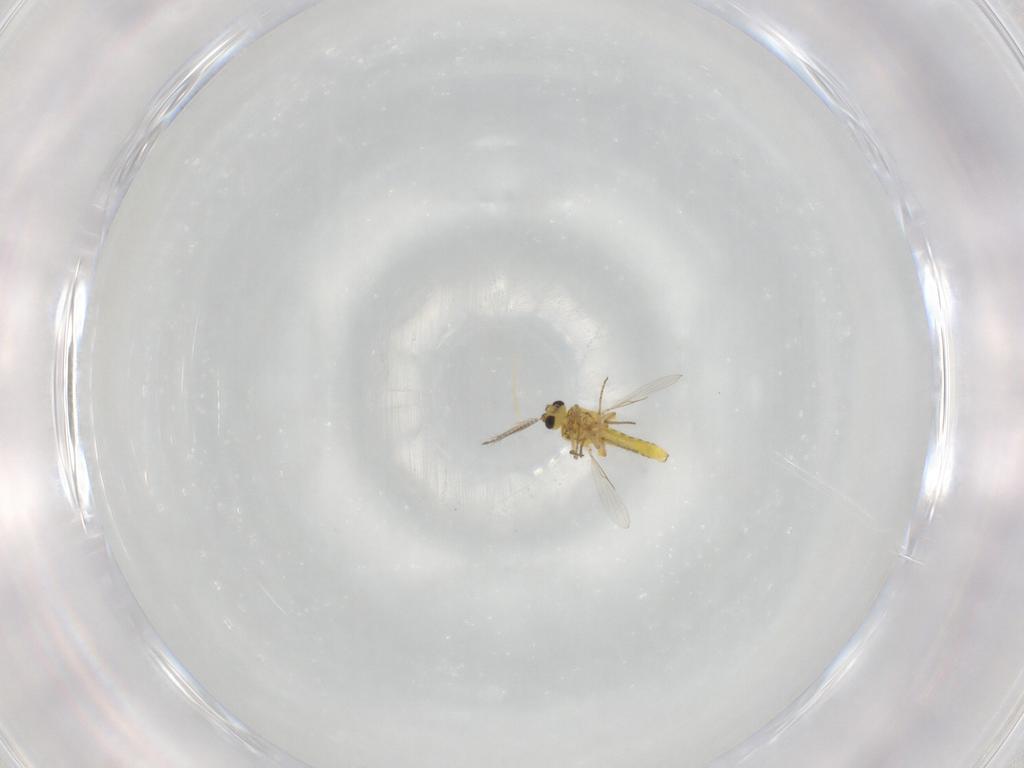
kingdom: Animalia
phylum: Arthropoda
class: Insecta
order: Diptera
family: Ceratopogonidae
